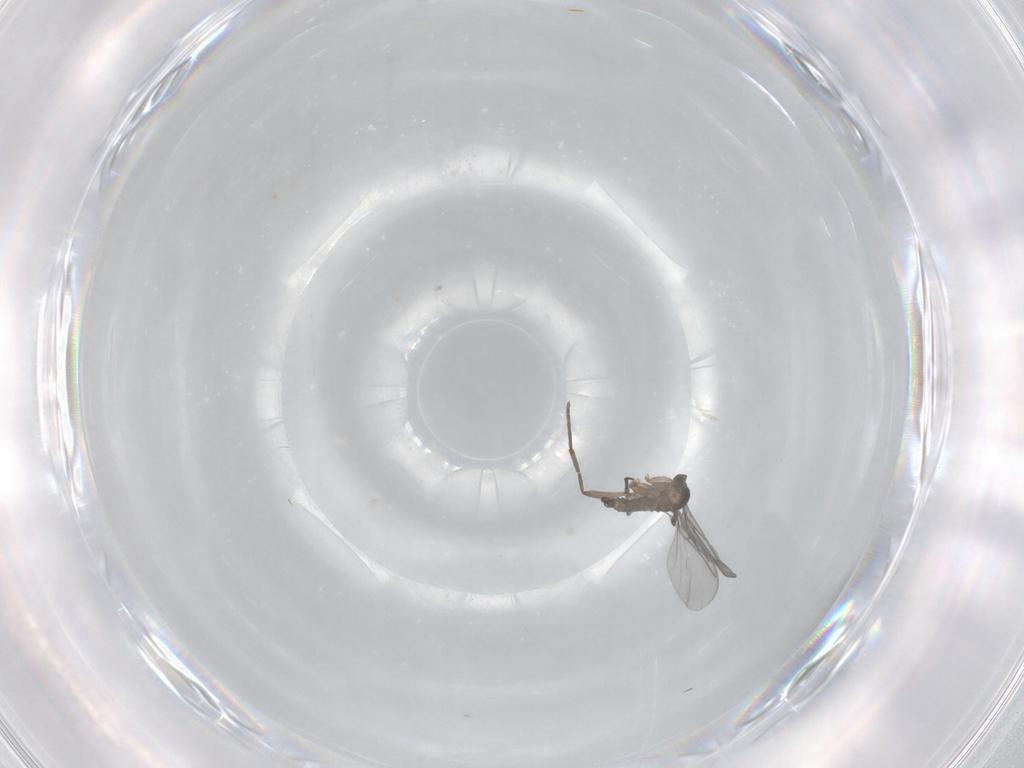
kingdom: Animalia
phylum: Arthropoda
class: Insecta
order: Diptera
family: Sciaridae
